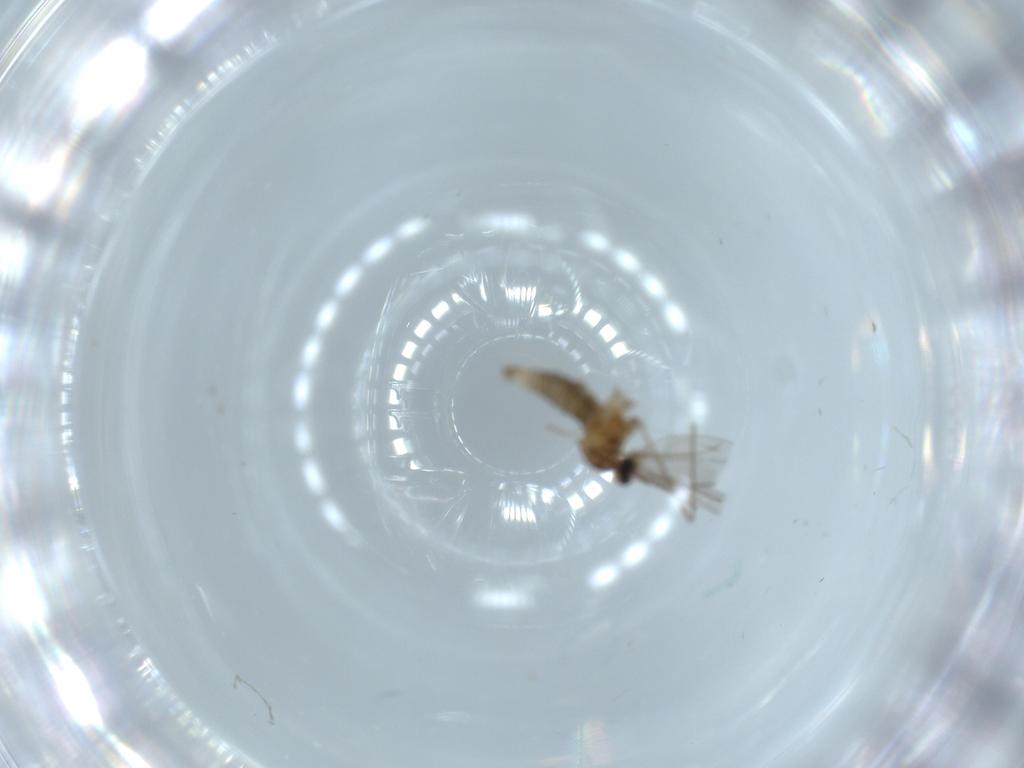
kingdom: Animalia
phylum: Arthropoda
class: Insecta
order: Diptera
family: Cecidomyiidae
